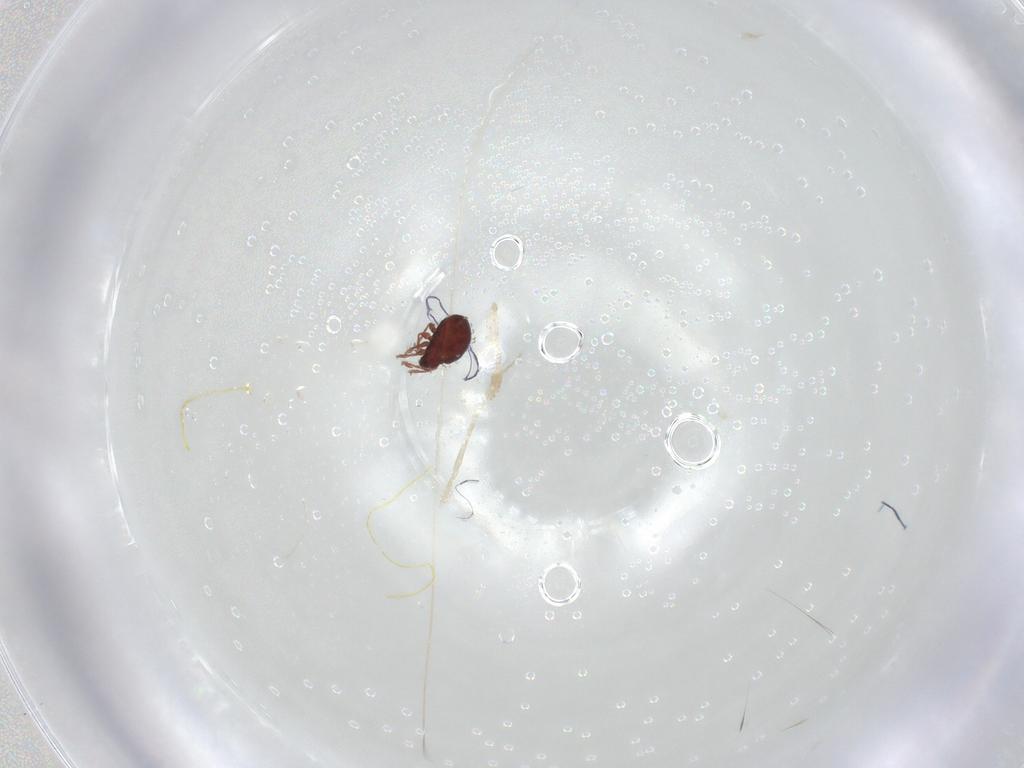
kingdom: Animalia
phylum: Arthropoda
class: Arachnida
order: Sarcoptiformes
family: Scheloribatidae
